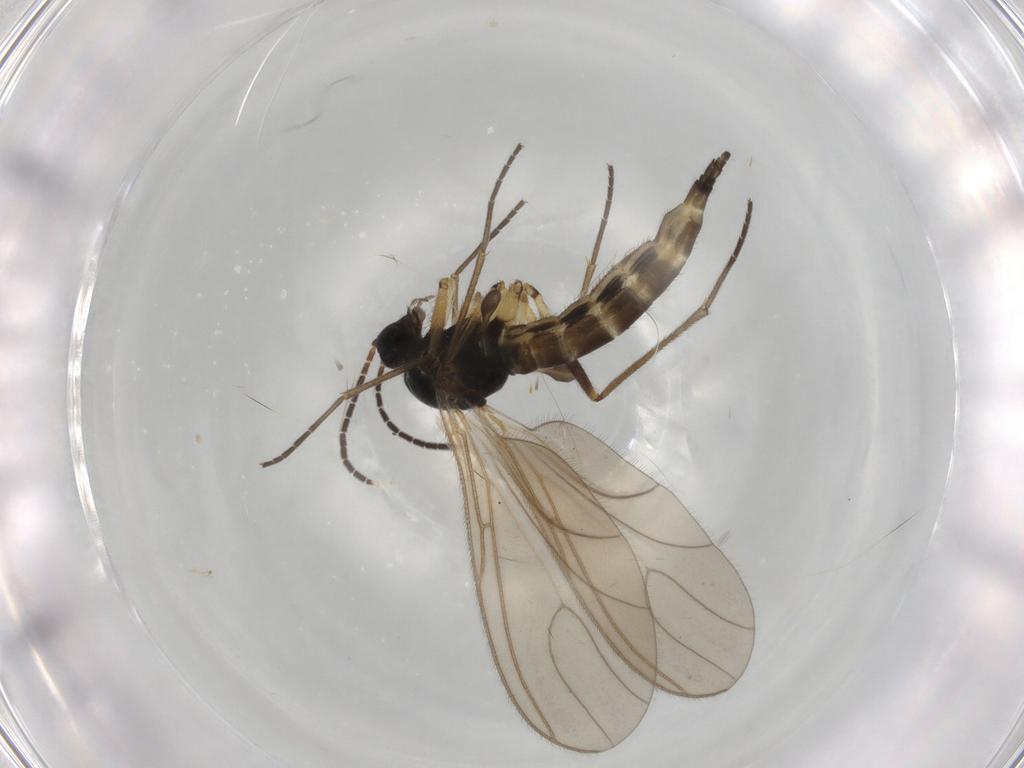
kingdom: Animalia
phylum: Arthropoda
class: Insecta
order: Diptera
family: Sciaridae
